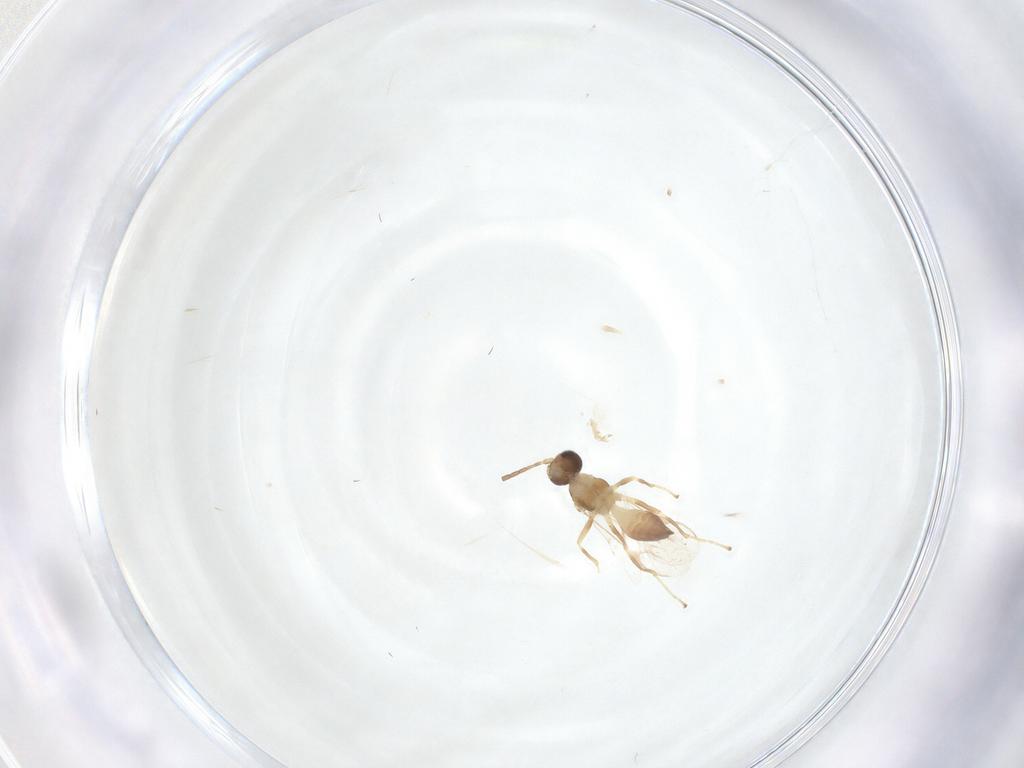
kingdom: Animalia
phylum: Arthropoda
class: Insecta
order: Hymenoptera
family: Braconidae
